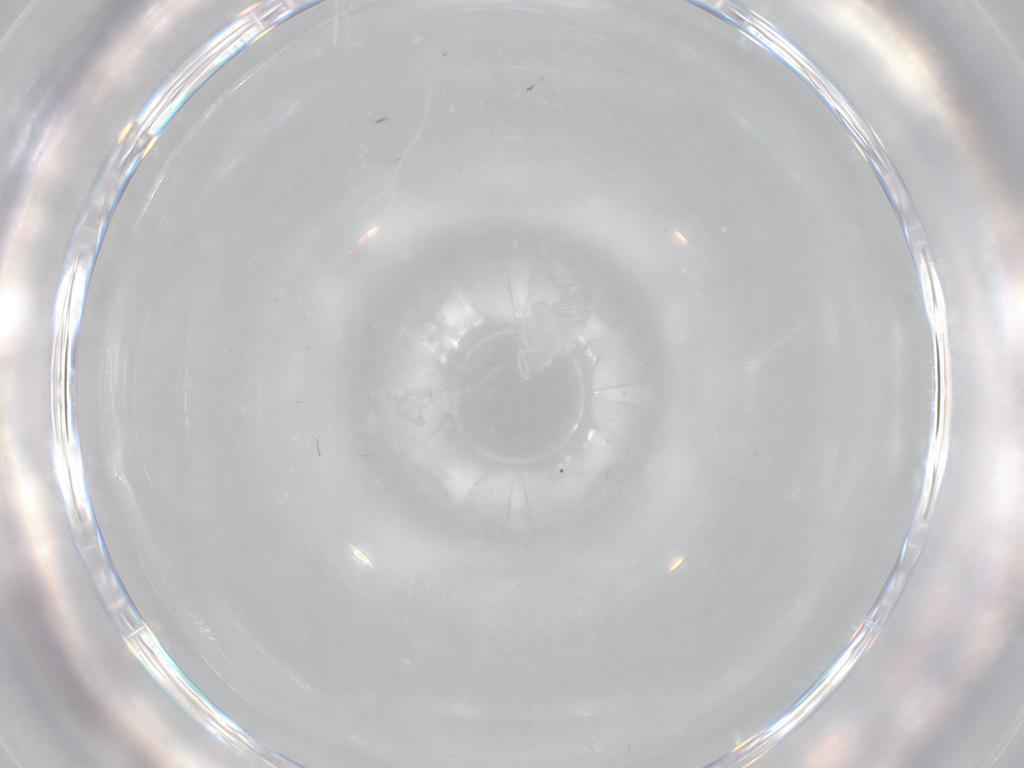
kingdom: Animalia
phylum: Arthropoda
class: Insecta
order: Diptera
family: Cecidomyiidae
